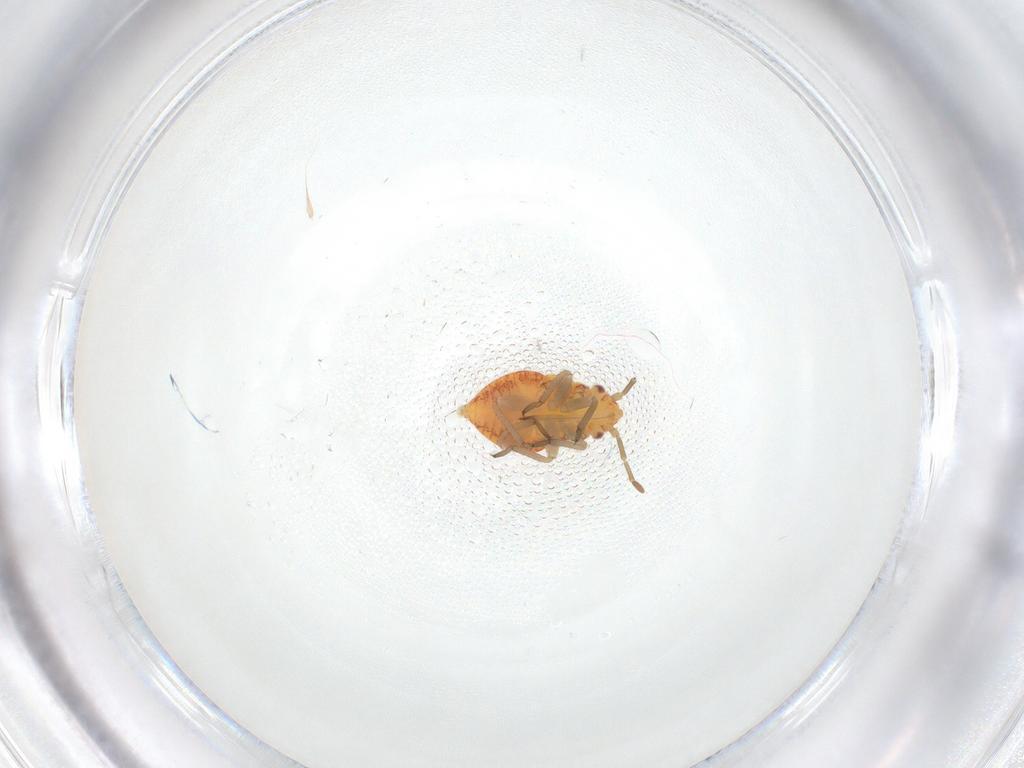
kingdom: Animalia
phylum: Arthropoda
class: Insecta
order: Hemiptera
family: Miridae
